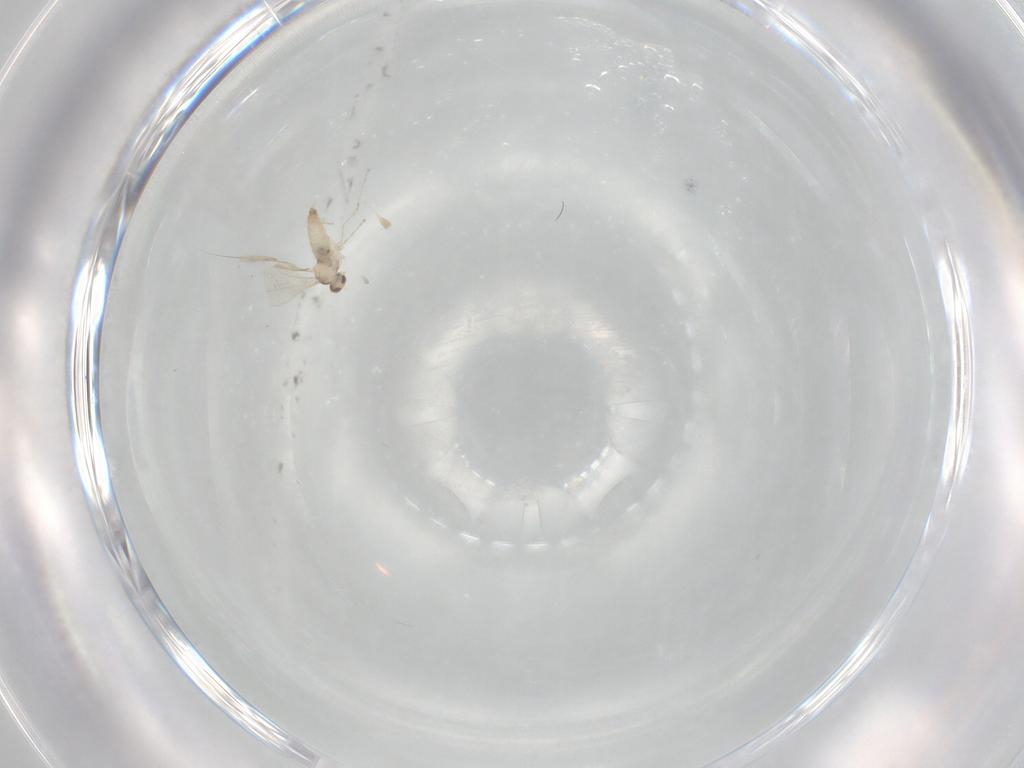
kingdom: Animalia
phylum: Arthropoda
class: Insecta
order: Diptera
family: Cecidomyiidae
